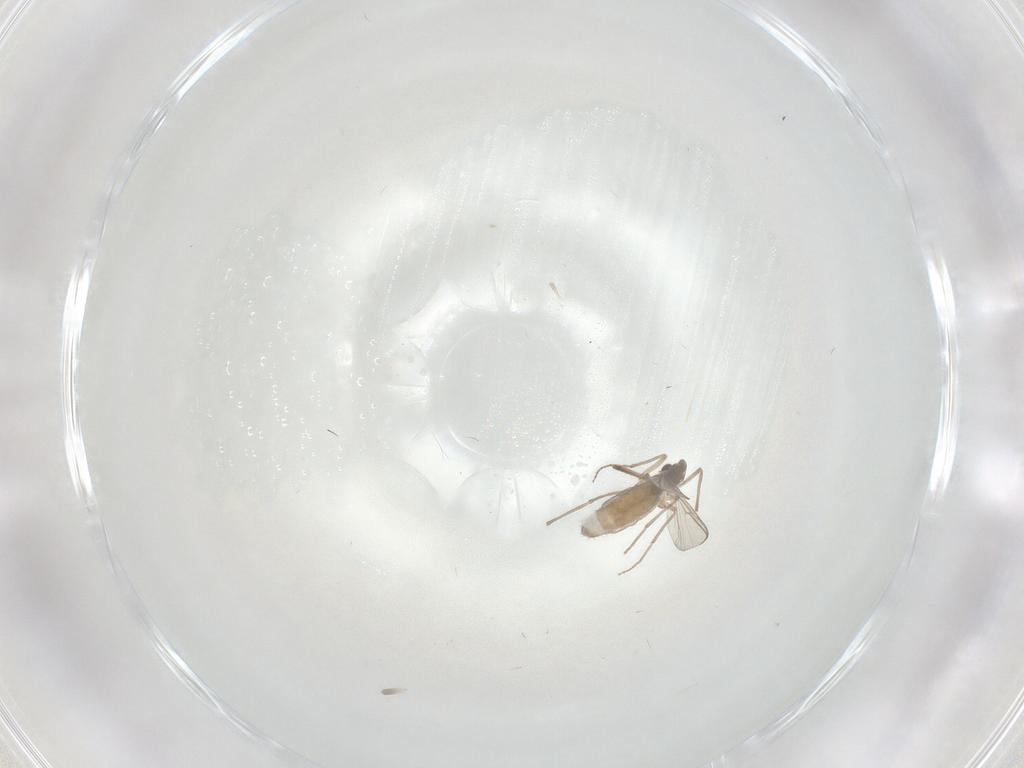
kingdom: Animalia
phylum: Arthropoda
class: Insecta
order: Diptera
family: Chironomidae
